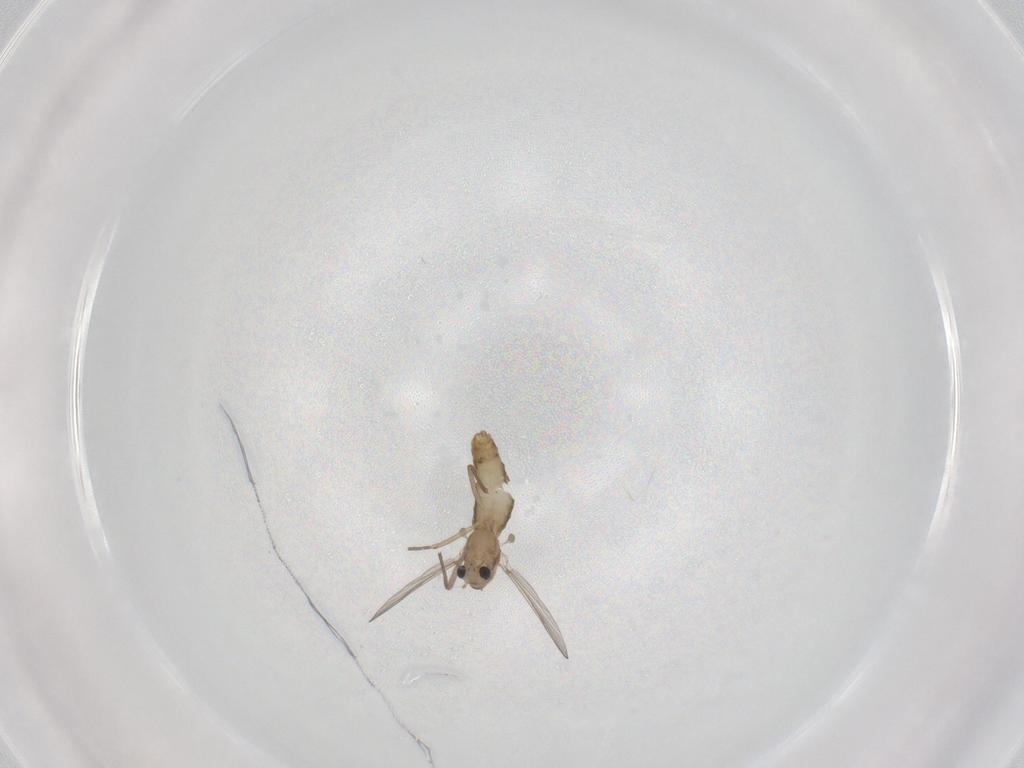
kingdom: Animalia
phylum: Arthropoda
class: Insecta
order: Diptera
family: Chironomidae
